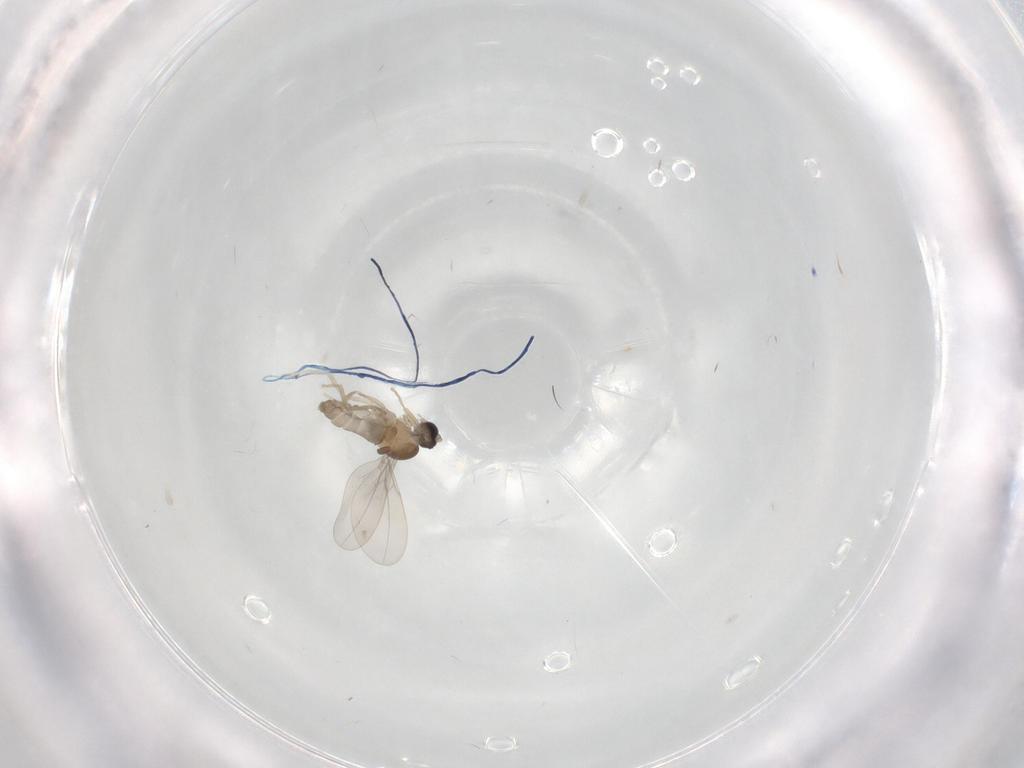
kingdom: Animalia
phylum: Arthropoda
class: Insecta
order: Diptera
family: Cecidomyiidae
